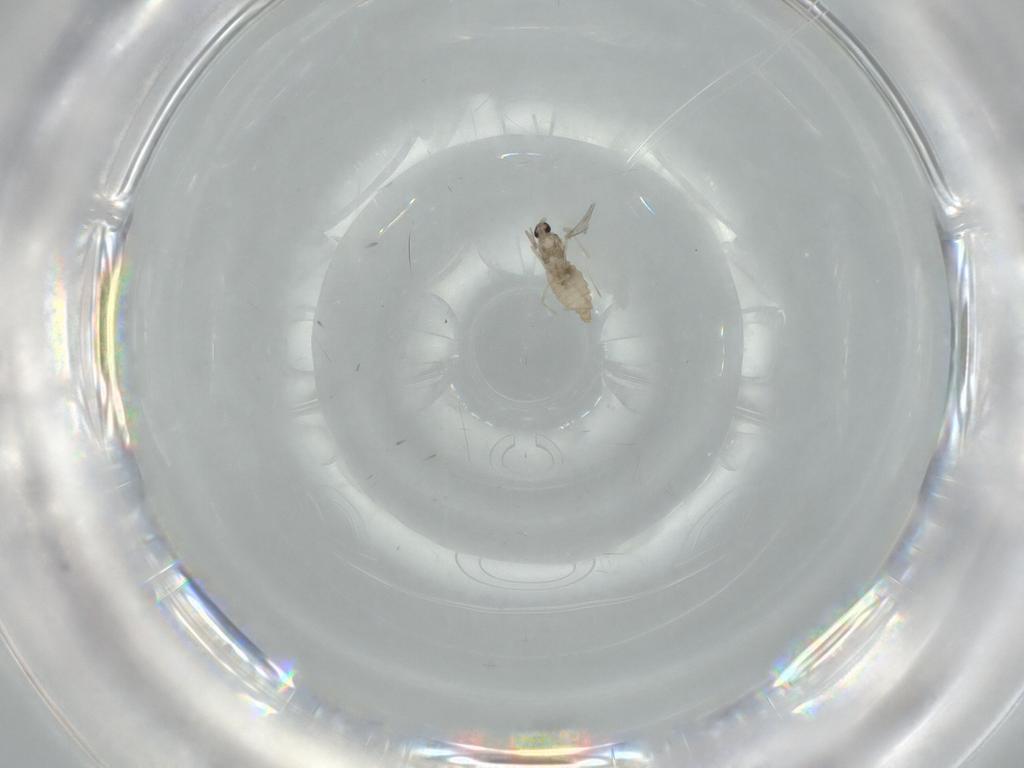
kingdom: Animalia
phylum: Arthropoda
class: Insecta
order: Diptera
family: Cecidomyiidae
